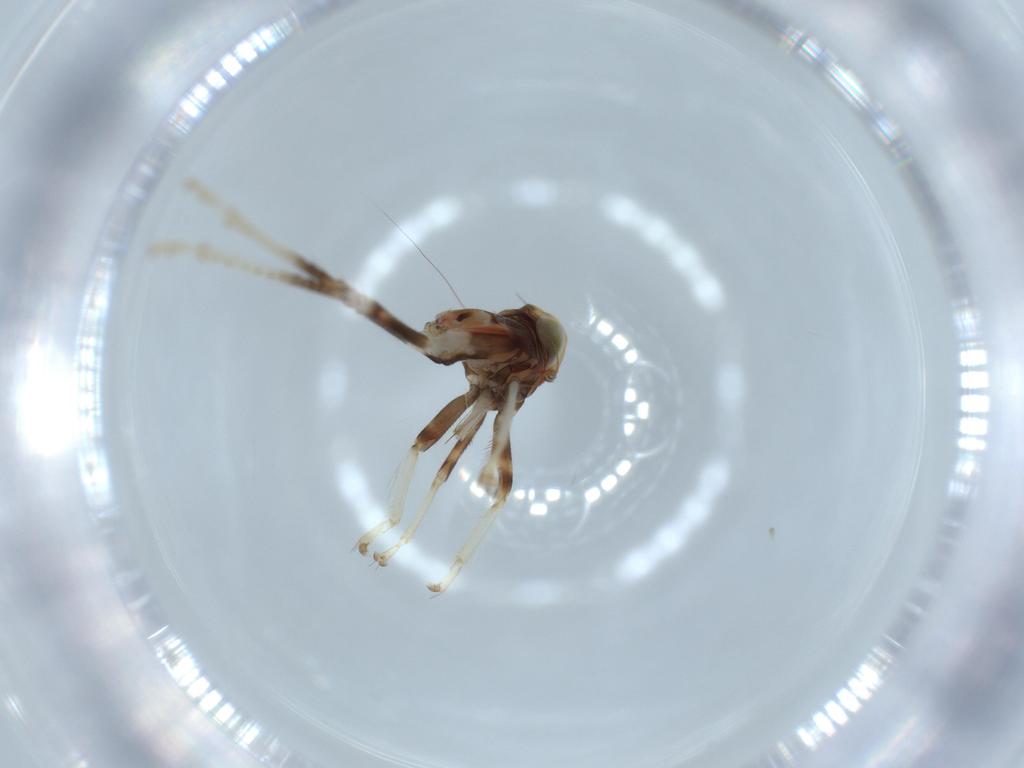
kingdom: Animalia
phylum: Arthropoda
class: Insecta
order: Hemiptera
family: Cicadellidae
